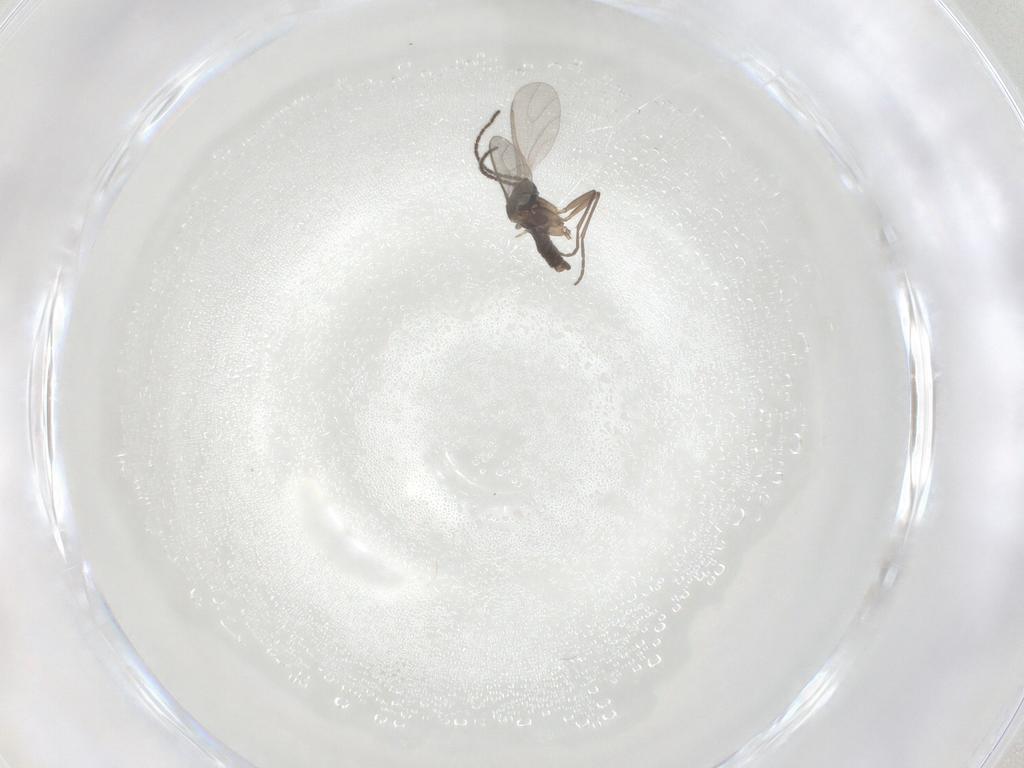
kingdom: Animalia
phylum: Arthropoda
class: Insecta
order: Diptera
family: Sciaridae
